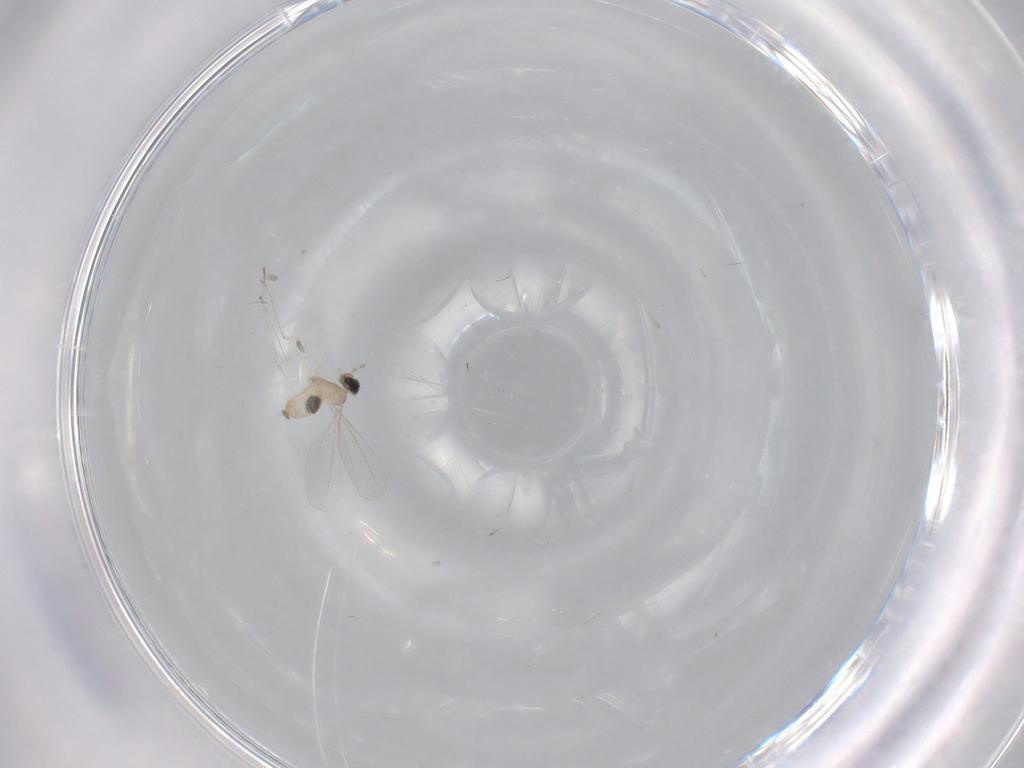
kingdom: Animalia
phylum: Arthropoda
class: Insecta
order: Diptera
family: Cecidomyiidae
